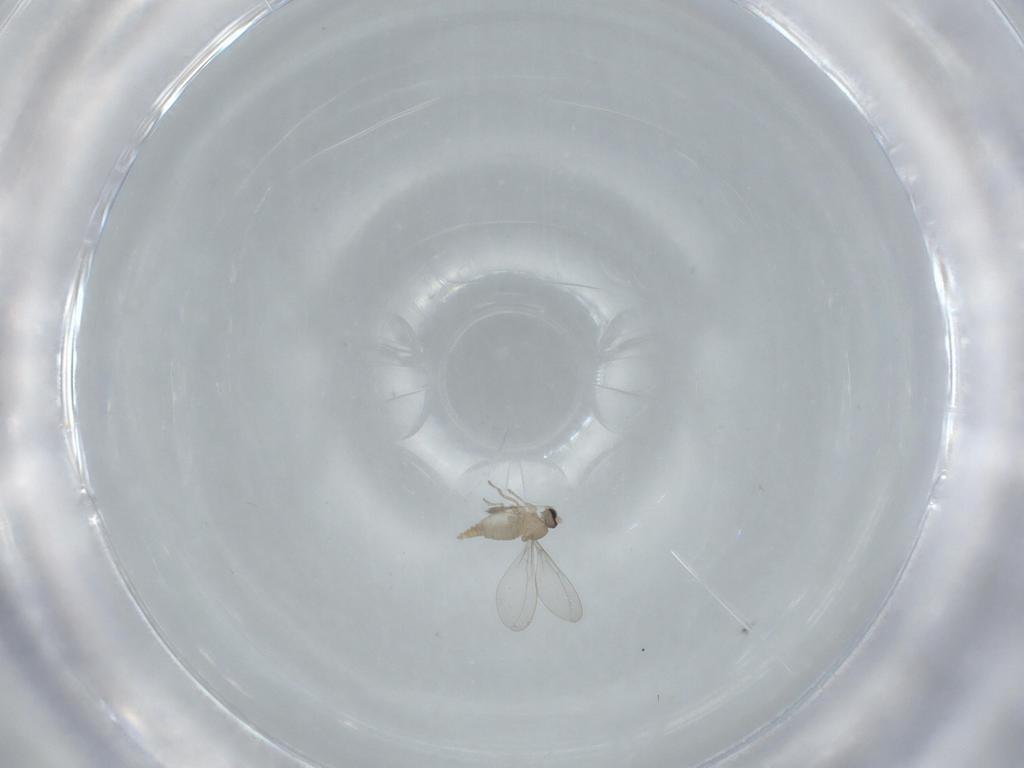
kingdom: Animalia
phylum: Arthropoda
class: Insecta
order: Diptera
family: Cecidomyiidae
